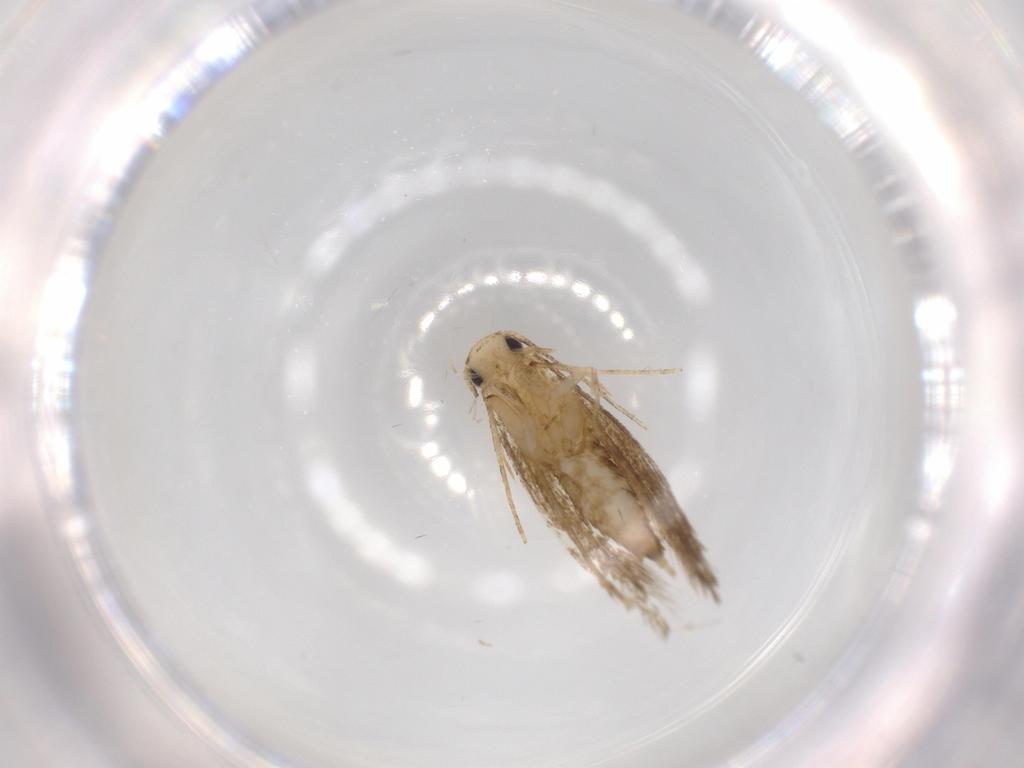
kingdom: Animalia
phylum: Arthropoda
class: Insecta
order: Lepidoptera
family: Tineidae
